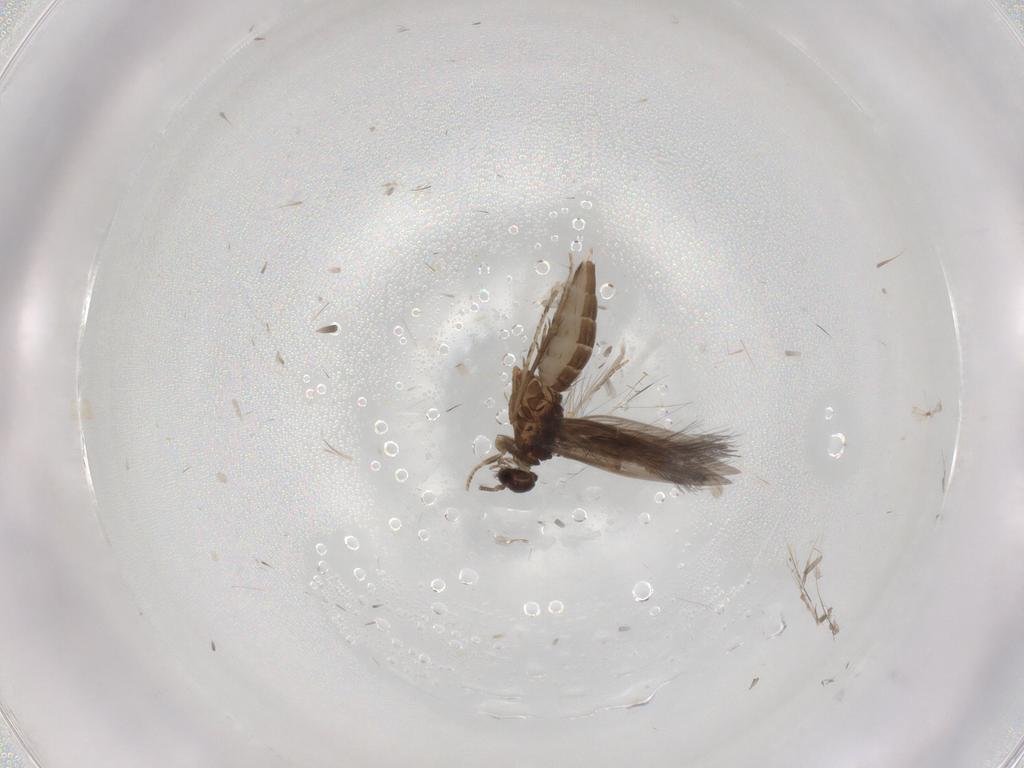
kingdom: Animalia
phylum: Arthropoda
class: Insecta
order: Trichoptera
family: Hydroptilidae
